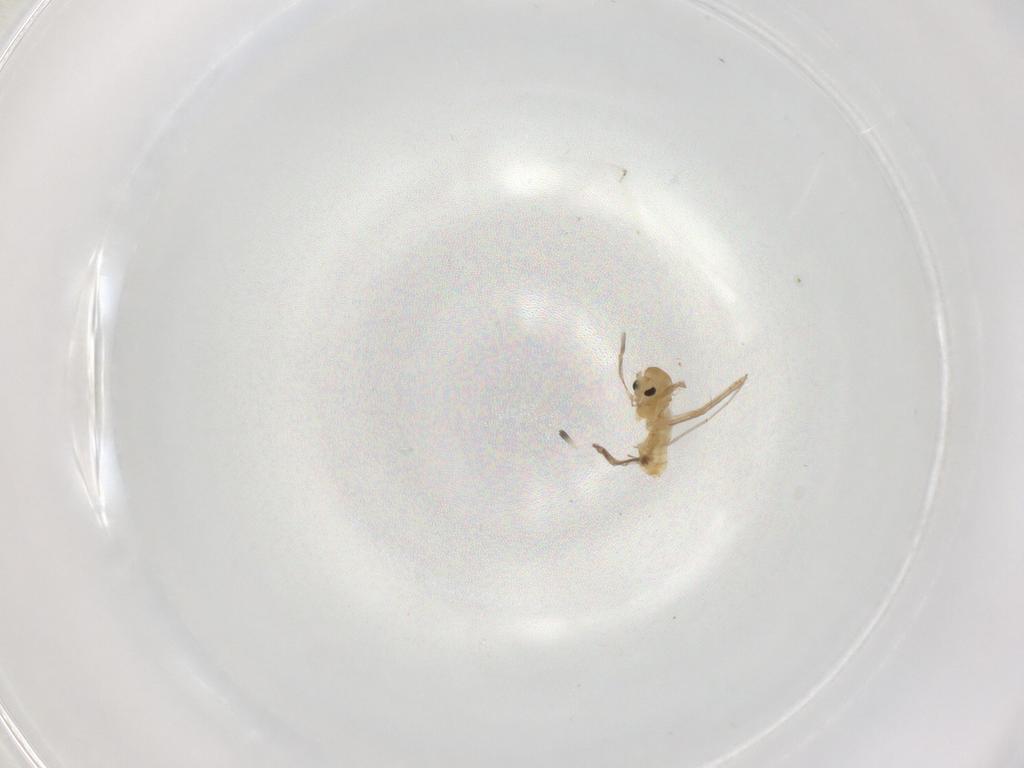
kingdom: Animalia
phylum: Arthropoda
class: Insecta
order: Diptera
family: Chironomidae
